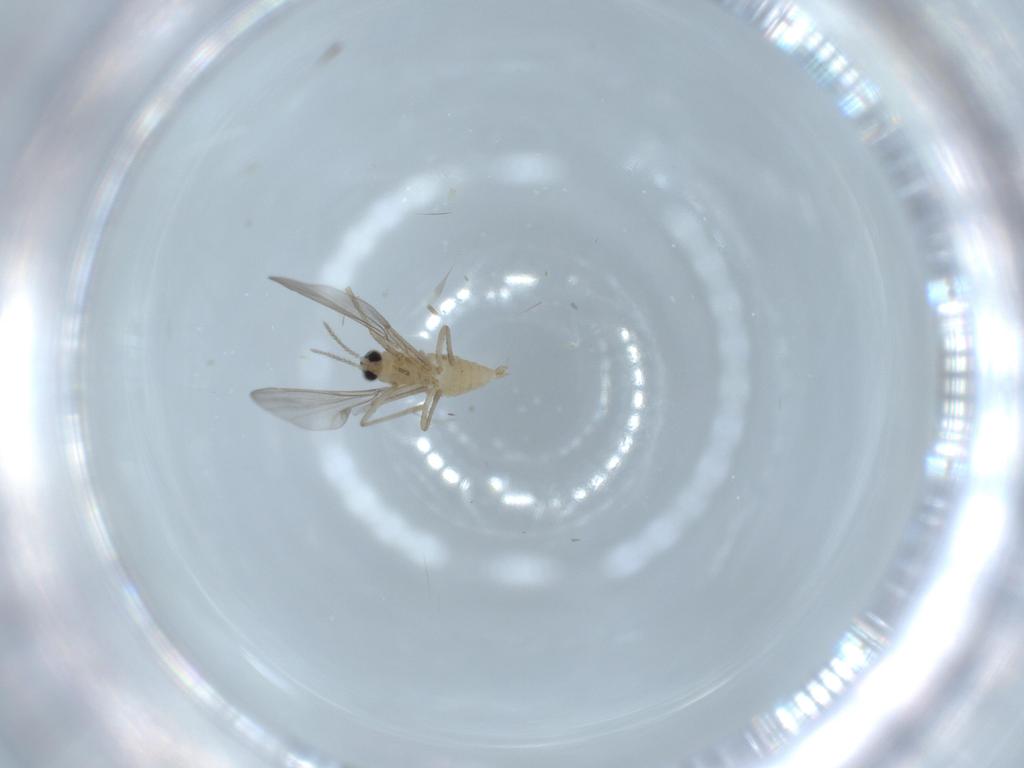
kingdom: Animalia
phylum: Arthropoda
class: Insecta
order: Diptera
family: Cecidomyiidae
